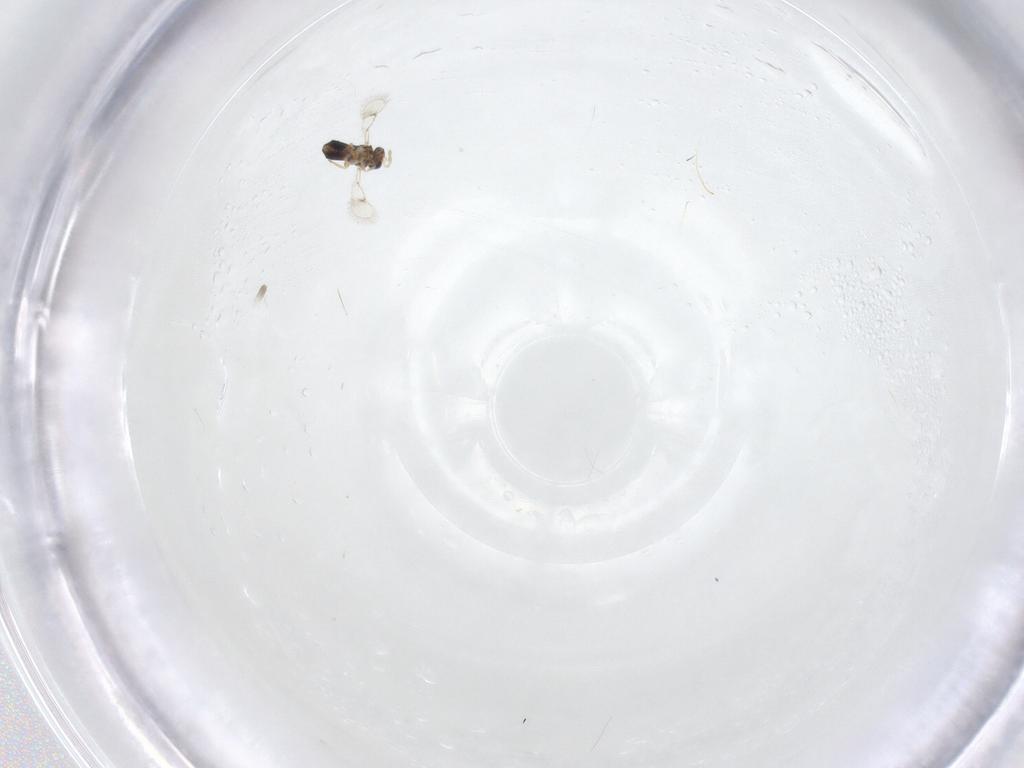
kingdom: Animalia
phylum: Arthropoda
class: Insecta
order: Hymenoptera
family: Trichogrammatidae
